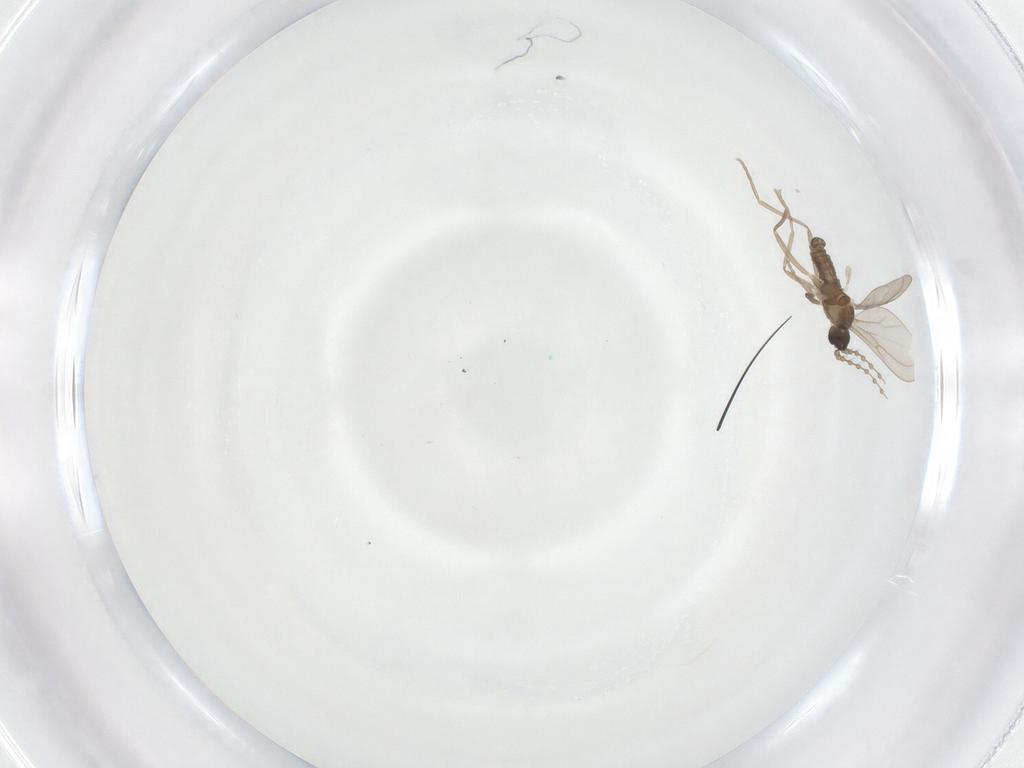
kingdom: Animalia
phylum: Arthropoda
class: Insecta
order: Diptera
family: Cecidomyiidae
